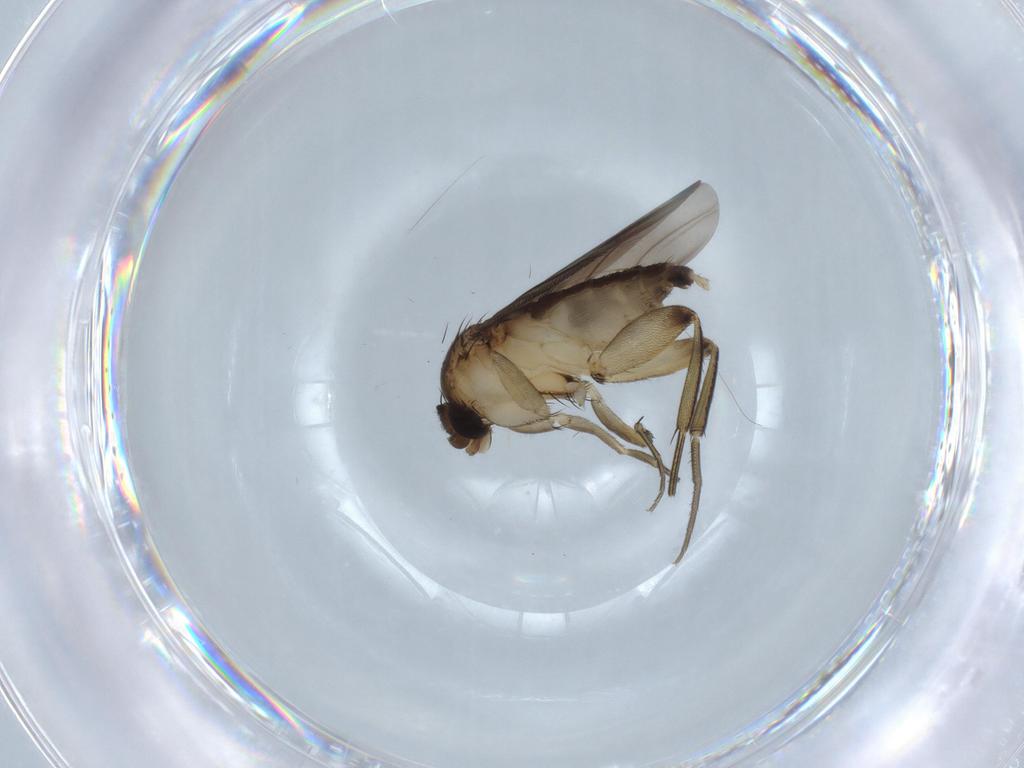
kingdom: Animalia
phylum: Arthropoda
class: Insecta
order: Diptera
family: Phoridae
